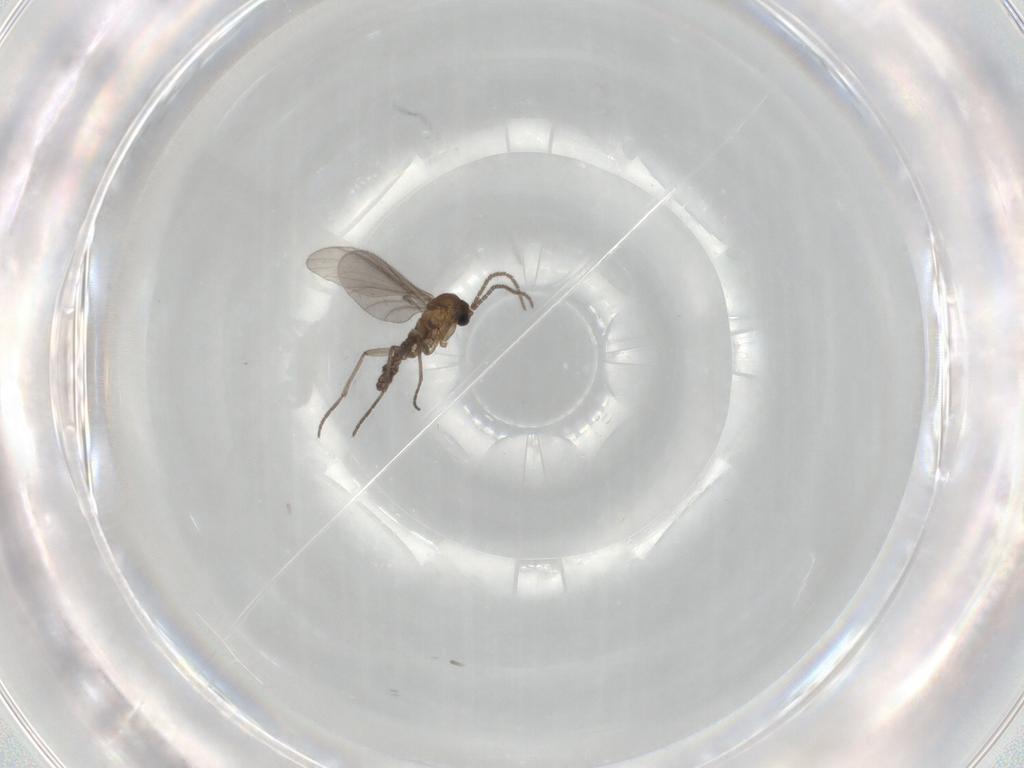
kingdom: Animalia
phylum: Arthropoda
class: Insecta
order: Diptera
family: Sciaridae
